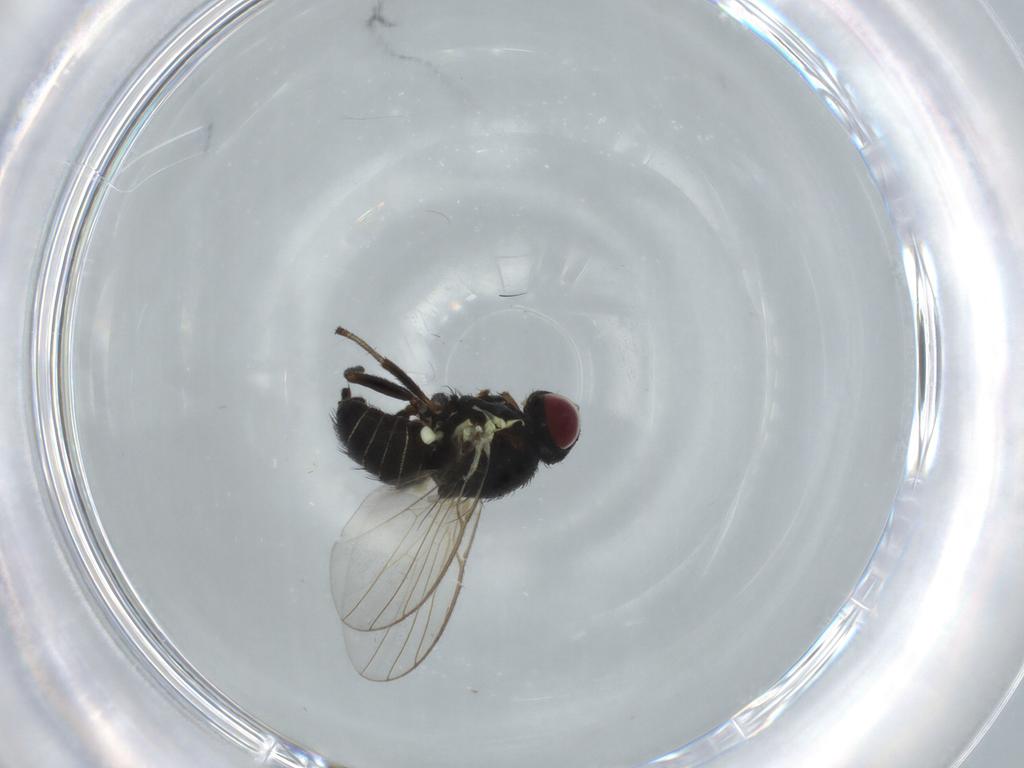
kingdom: Animalia
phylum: Arthropoda
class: Insecta
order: Diptera
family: Agromyzidae
